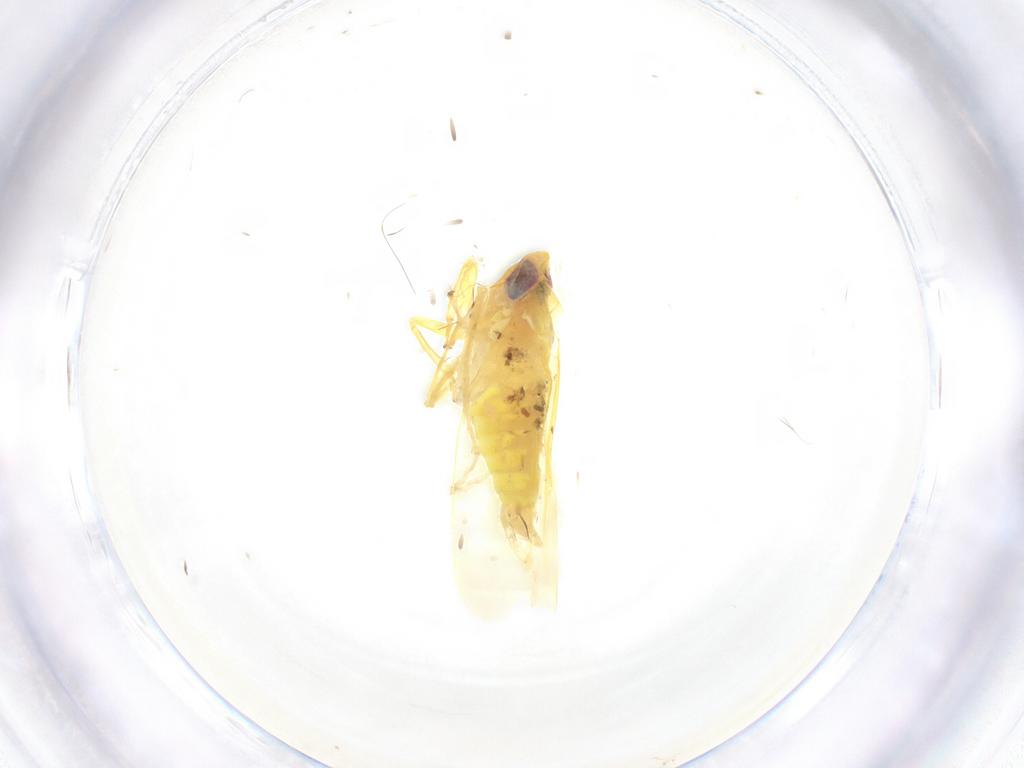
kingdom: Animalia
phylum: Arthropoda
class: Insecta
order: Hemiptera
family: Cicadellidae
